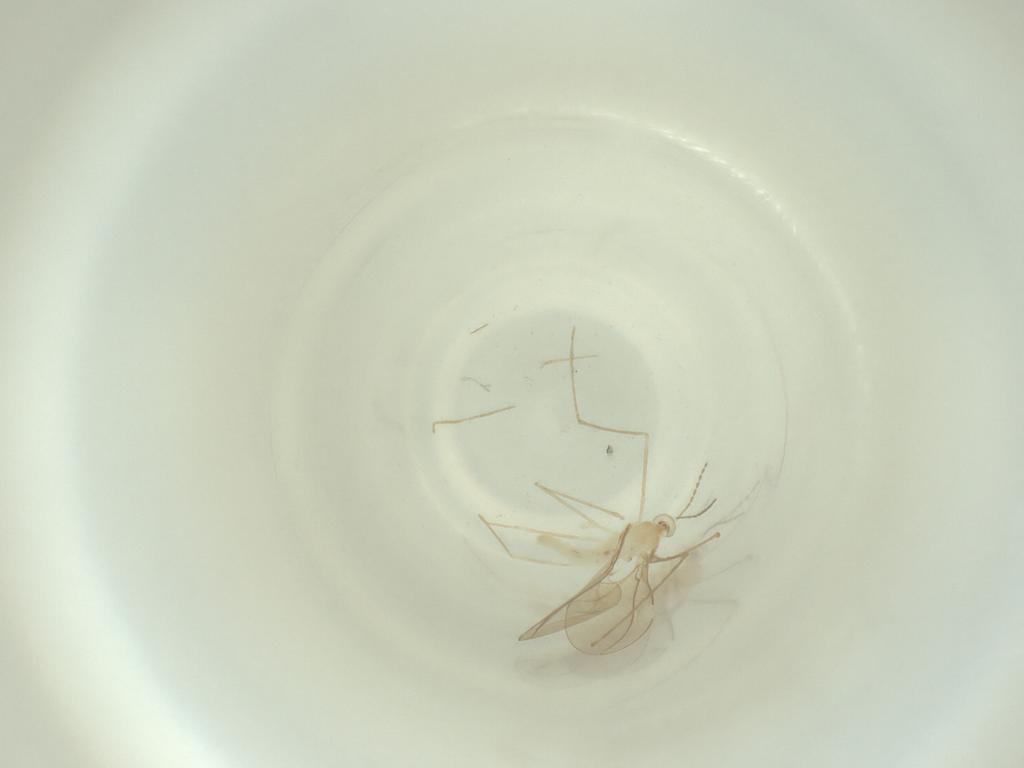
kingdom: Animalia
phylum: Arthropoda
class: Insecta
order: Diptera
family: Cecidomyiidae
